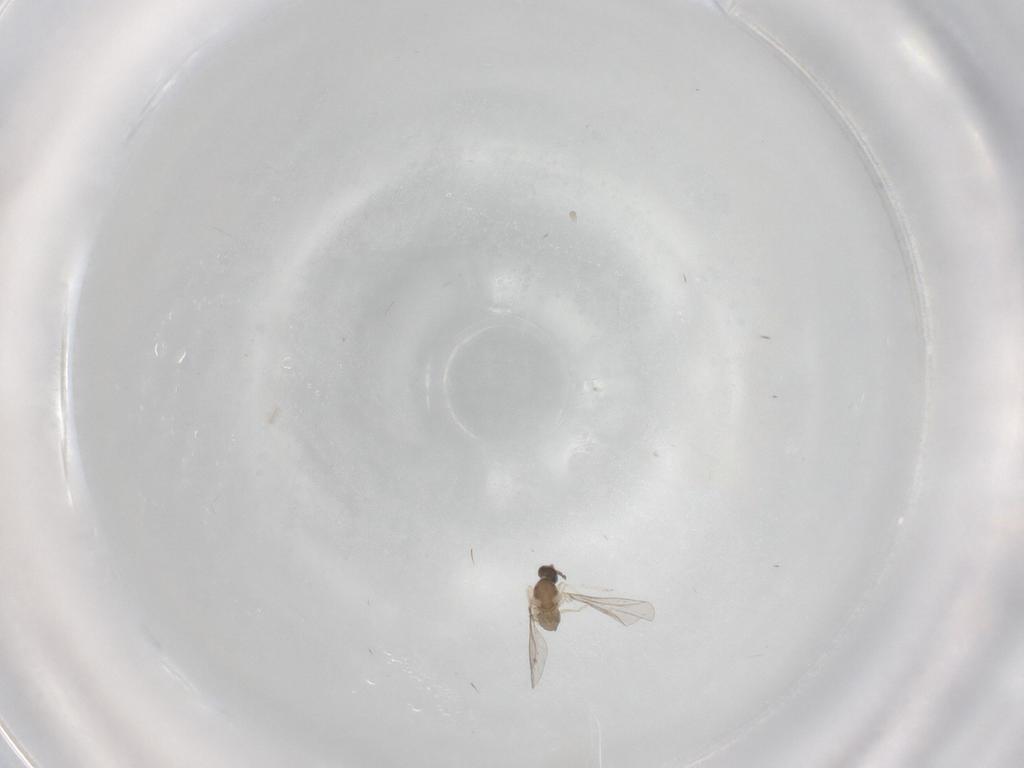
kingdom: Animalia
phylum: Arthropoda
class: Insecta
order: Diptera
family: Cecidomyiidae
